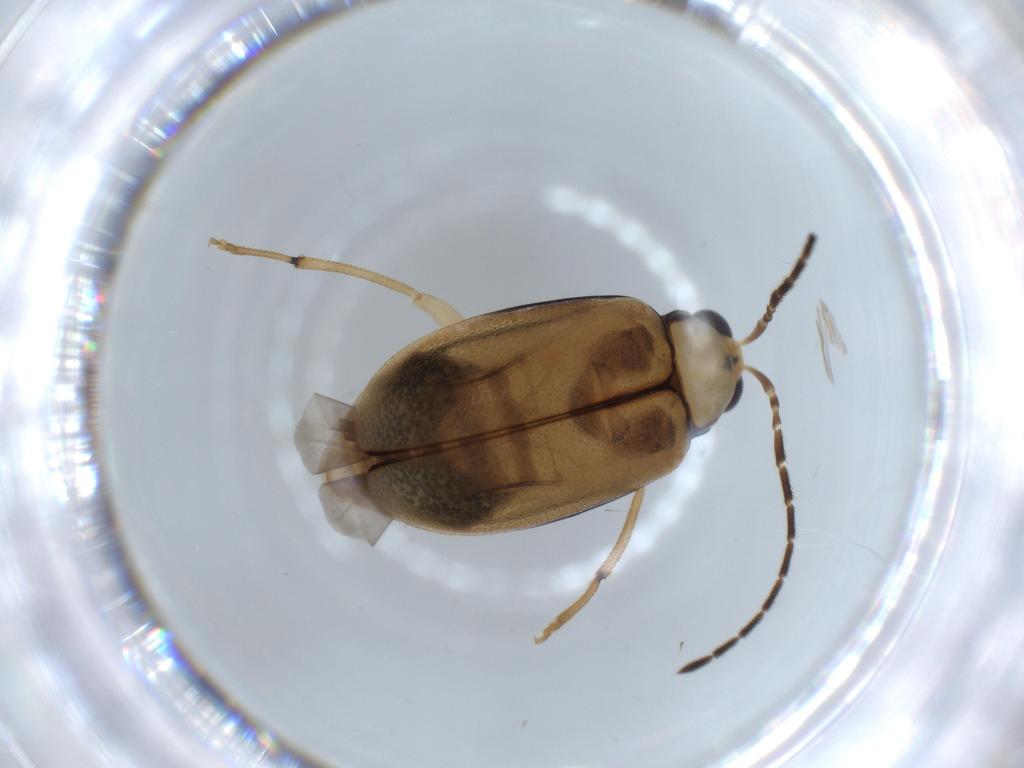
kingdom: Animalia
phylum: Arthropoda
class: Insecta
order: Coleoptera
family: Chrysomelidae
